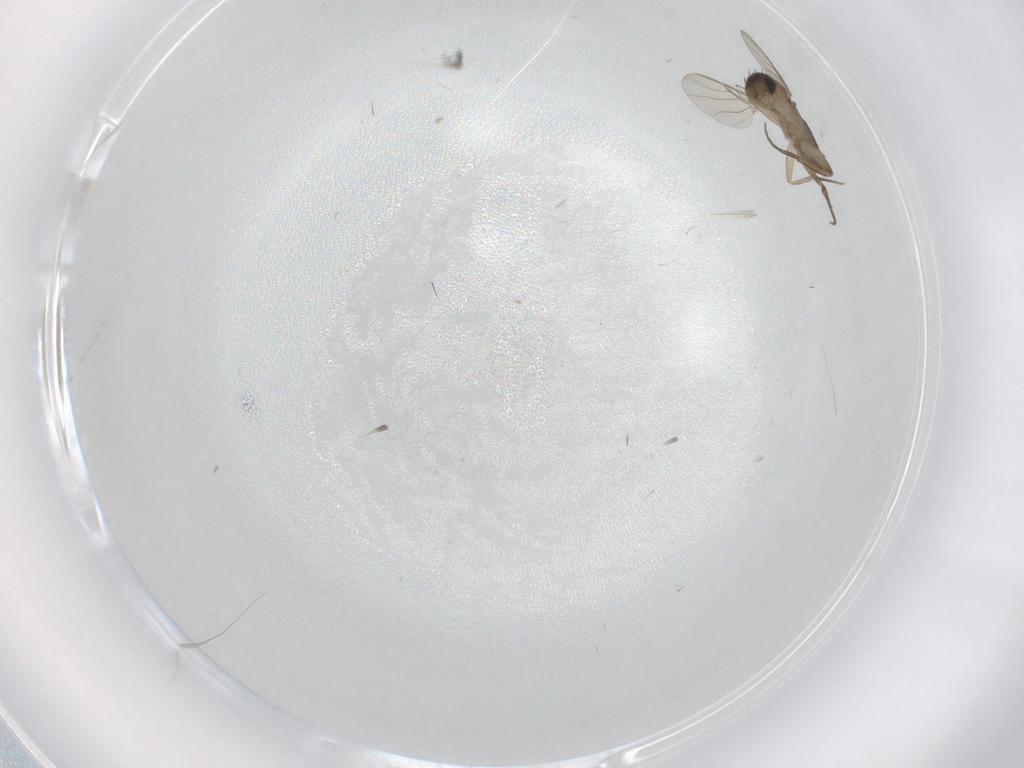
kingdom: Animalia
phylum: Arthropoda
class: Insecta
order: Diptera
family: Phoridae
